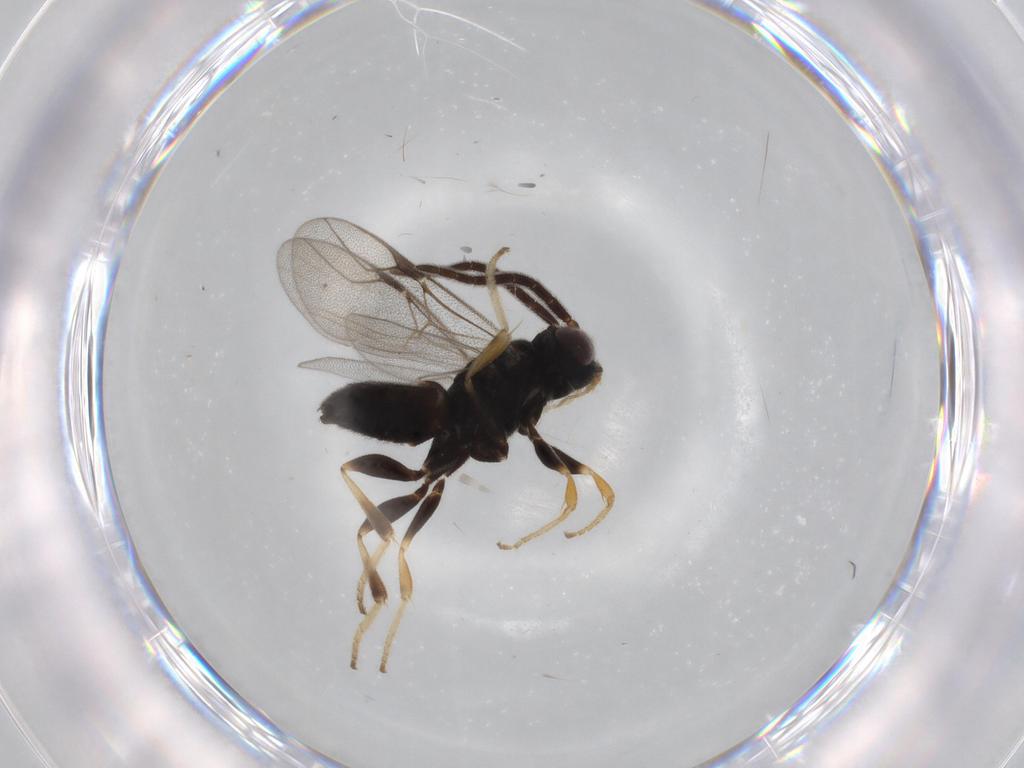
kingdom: Animalia
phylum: Arthropoda
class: Insecta
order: Hymenoptera
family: Dryinidae
